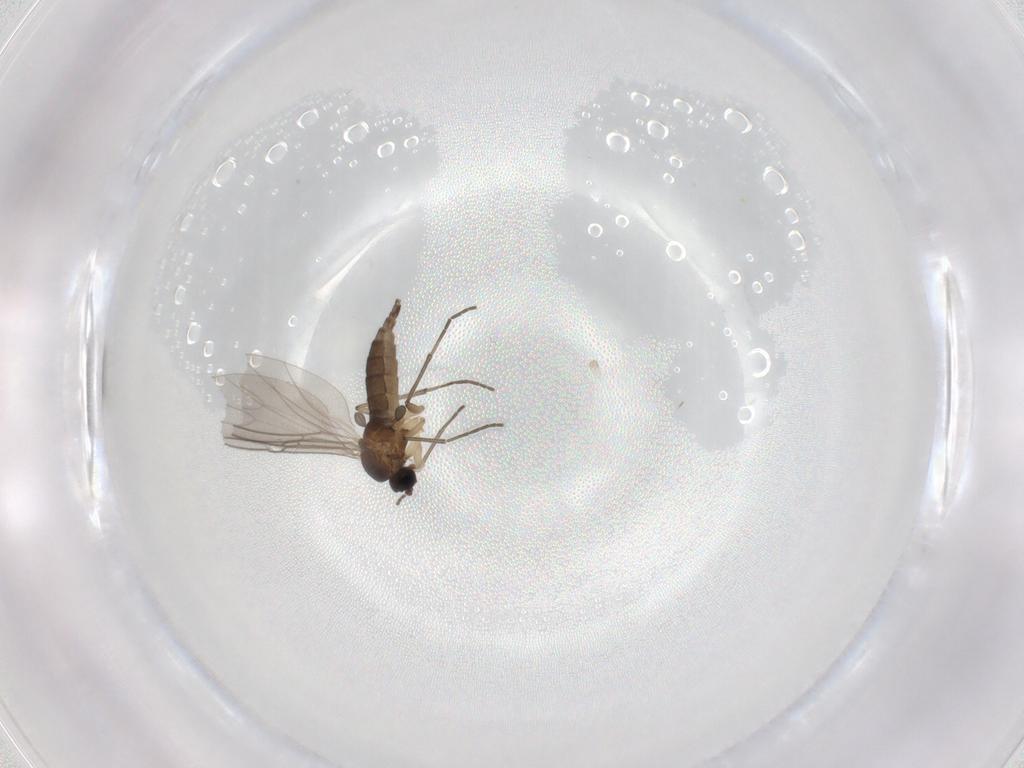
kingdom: Animalia
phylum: Arthropoda
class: Insecta
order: Diptera
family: Sciaridae
